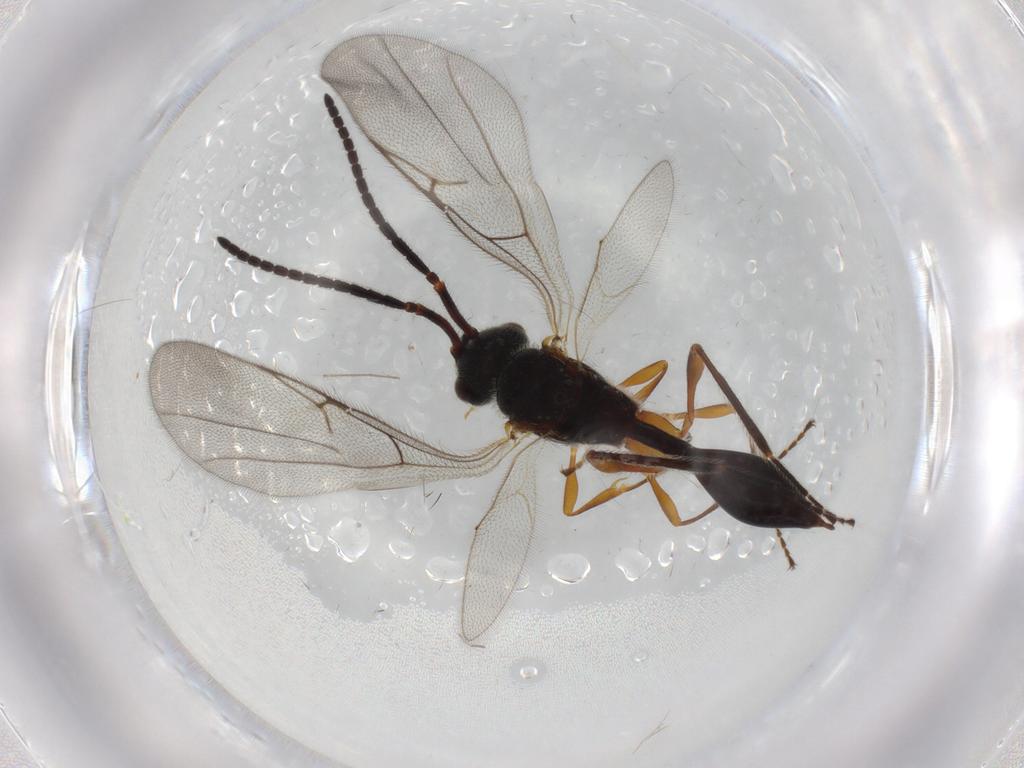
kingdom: Animalia
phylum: Arthropoda
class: Insecta
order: Hymenoptera
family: Diapriidae
